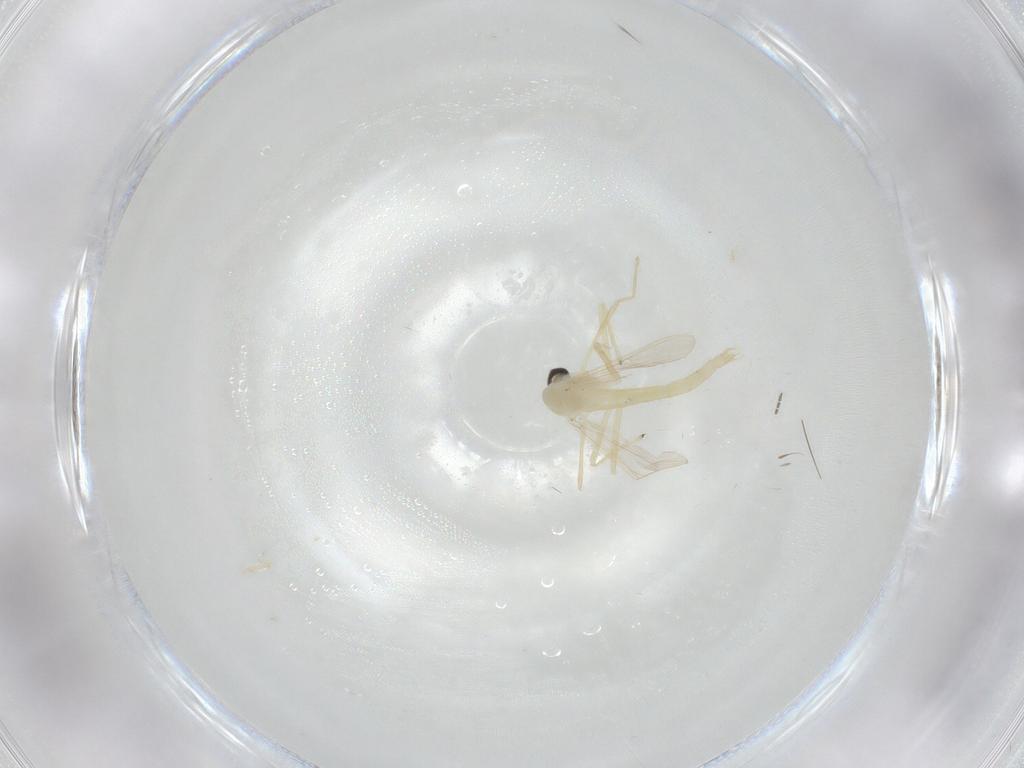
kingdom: Animalia
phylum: Arthropoda
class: Insecta
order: Diptera
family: Chironomidae
